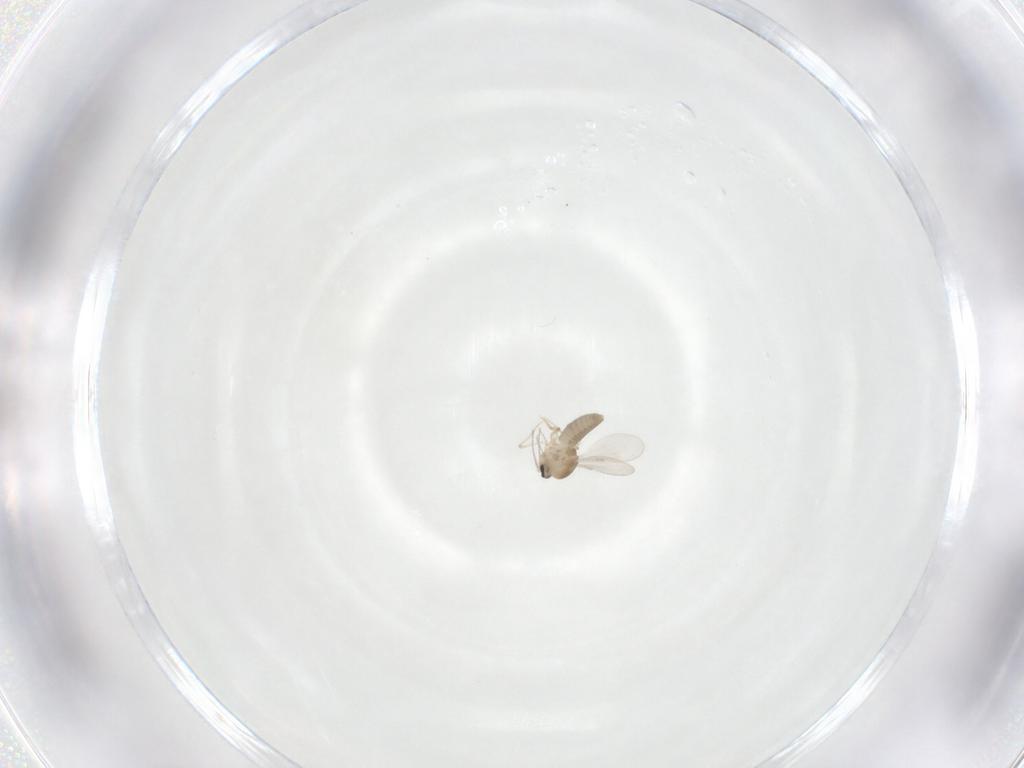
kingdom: Animalia
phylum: Arthropoda
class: Insecta
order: Diptera
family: Ceratopogonidae
